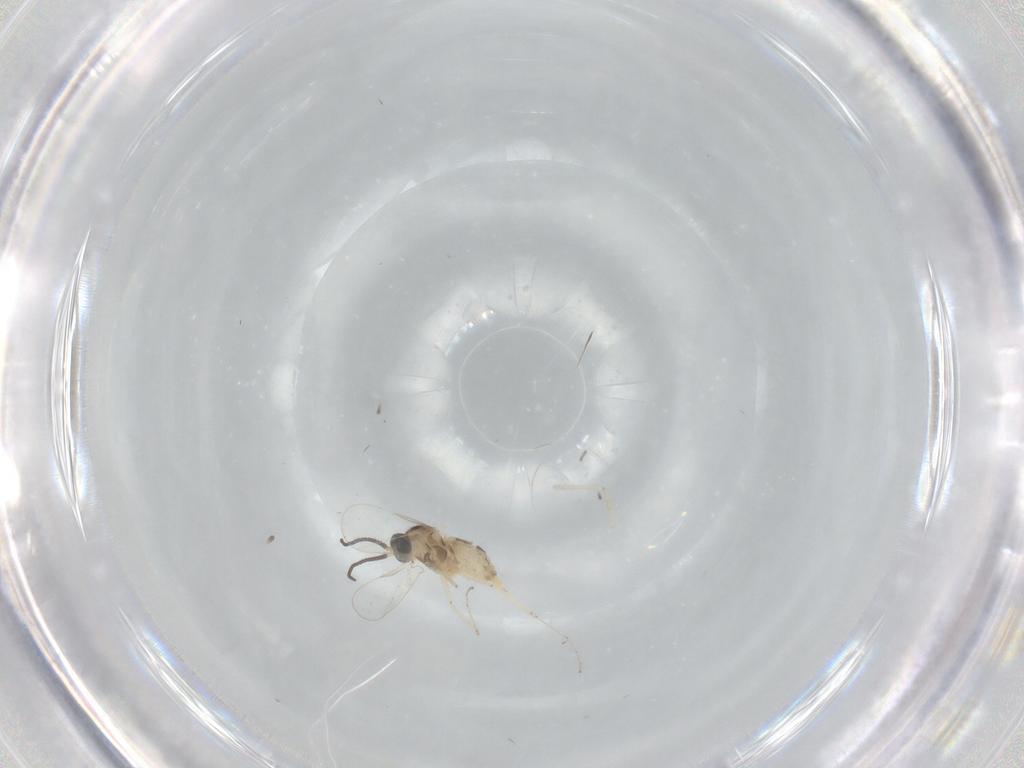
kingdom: Animalia
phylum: Arthropoda
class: Insecta
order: Diptera
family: Cecidomyiidae
